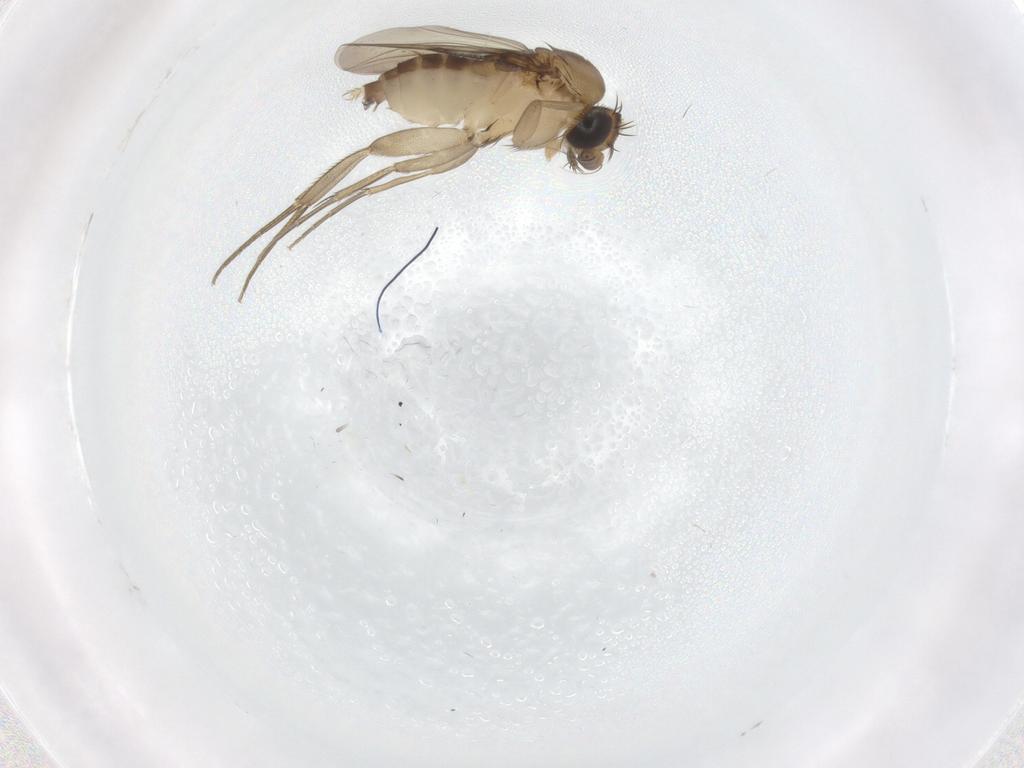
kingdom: Animalia
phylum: Arthropoda
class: Insecta
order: Diptera
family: Phoridae
